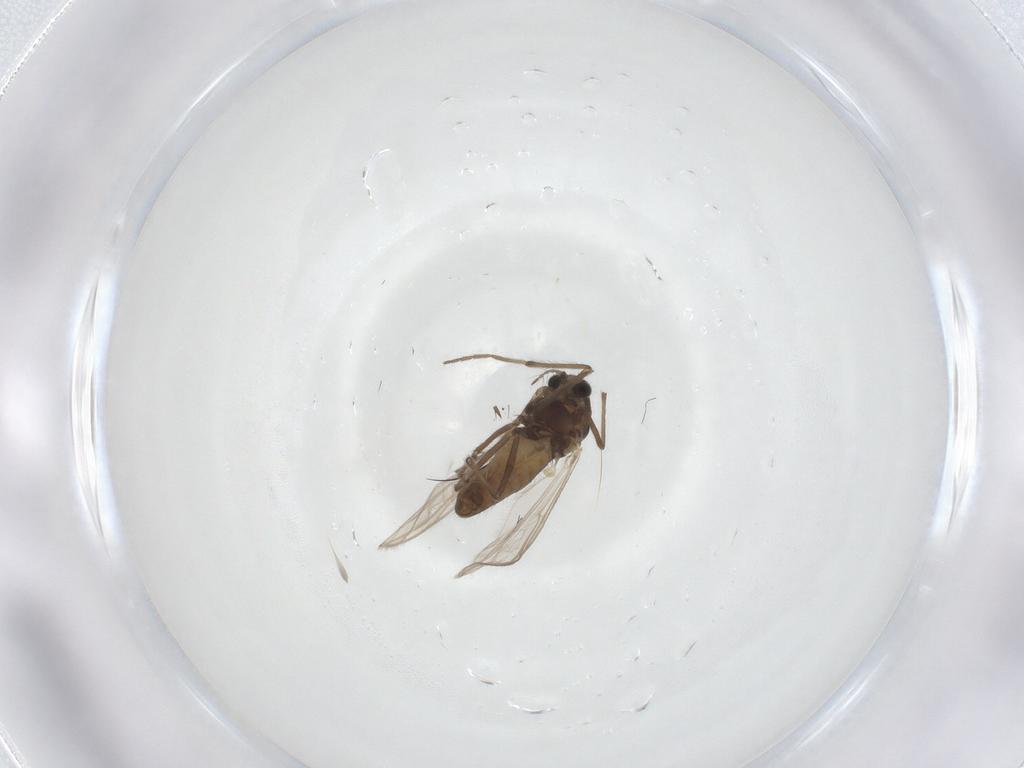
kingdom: Animalia
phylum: Arthropoda
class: Insecta
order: Diptera
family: Chironomidae
